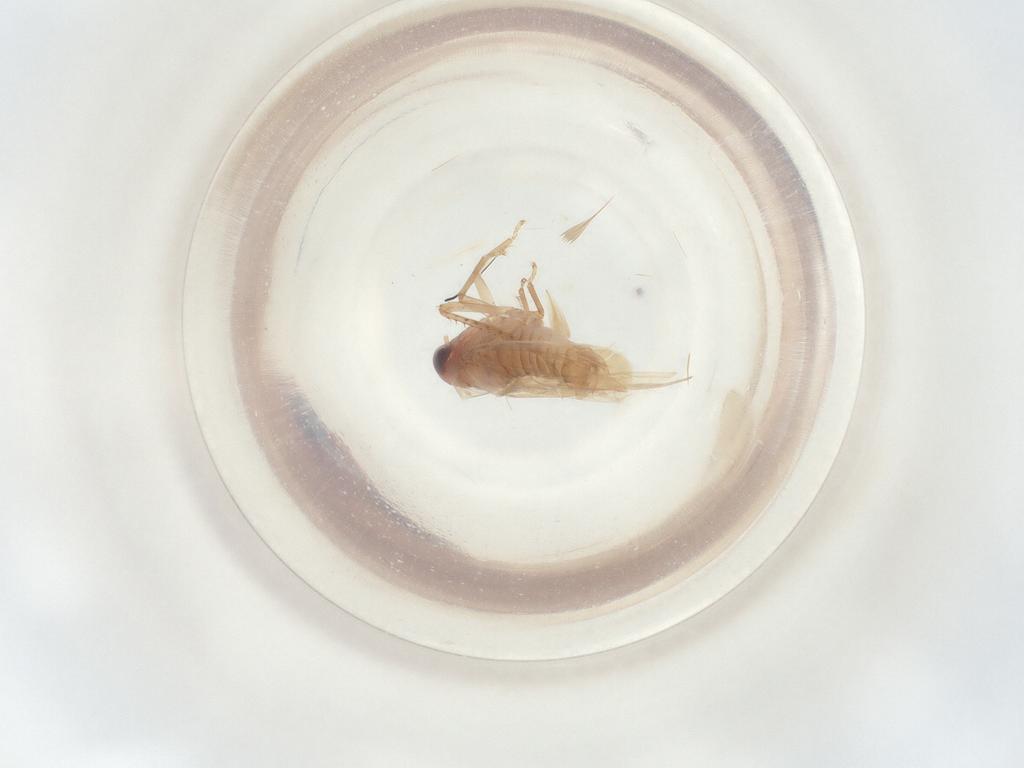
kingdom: Animalia
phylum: Arthropoda
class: Insecta
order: Hemiptera
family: Cicadellidae
